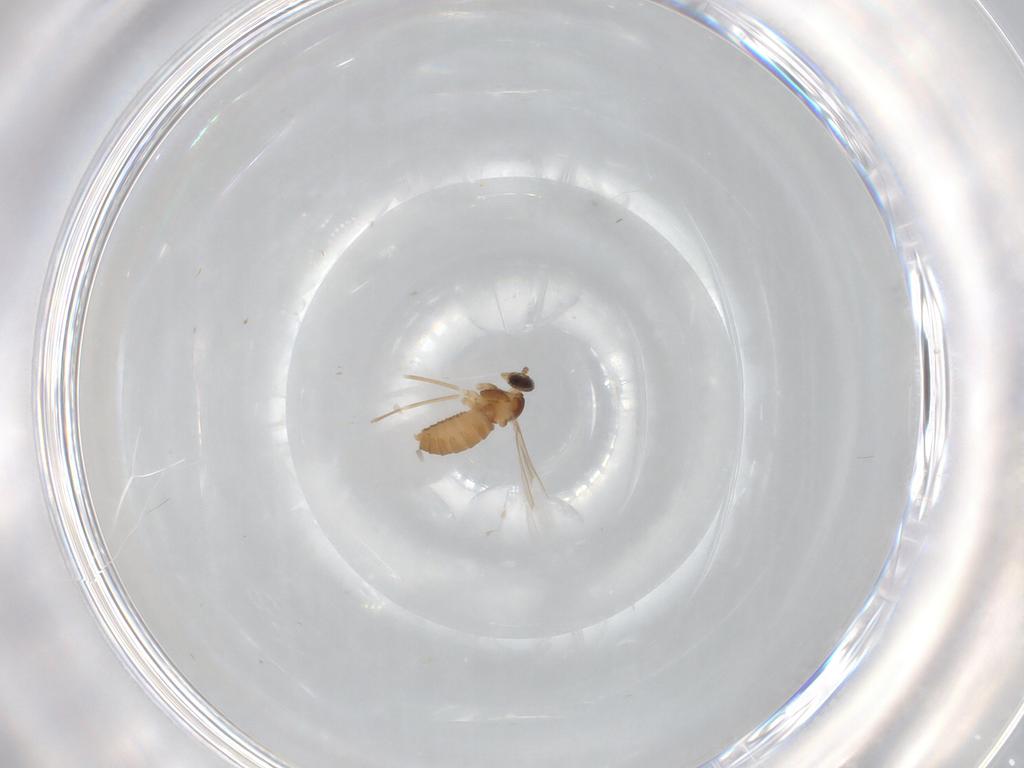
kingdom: Animalia
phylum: Arthropoda
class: Insecta
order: Diptera
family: Cecidomyiidae
